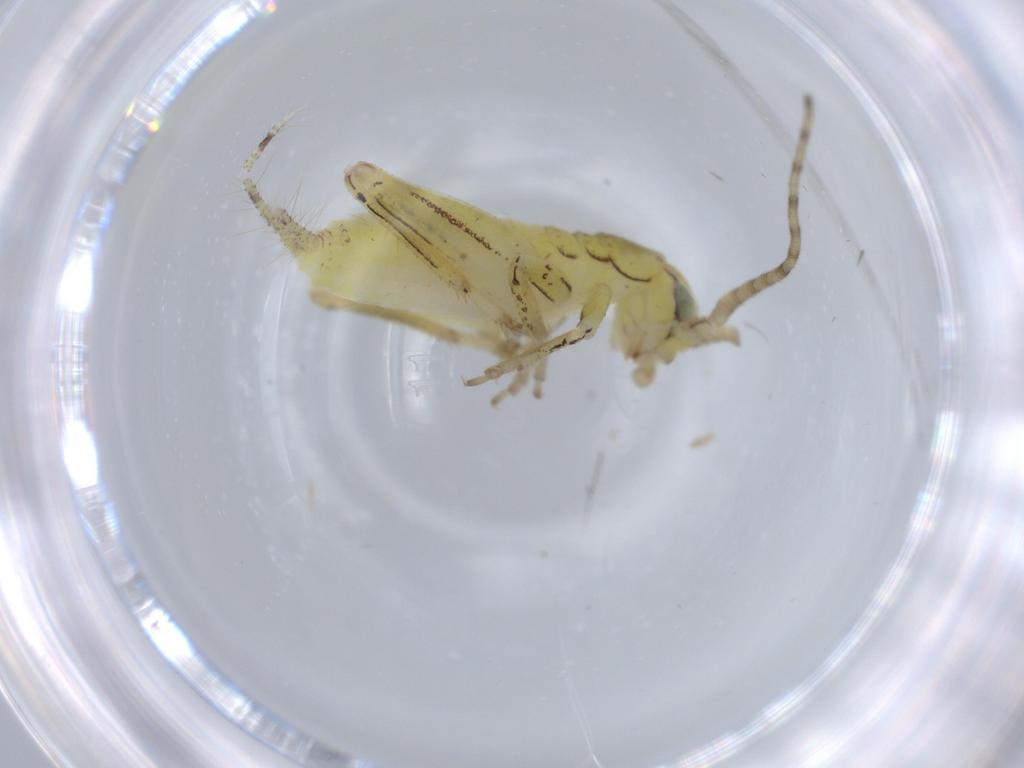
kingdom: Animalia
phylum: Arthropoda
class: Insecta
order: Orthoptera
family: Gryllidae
